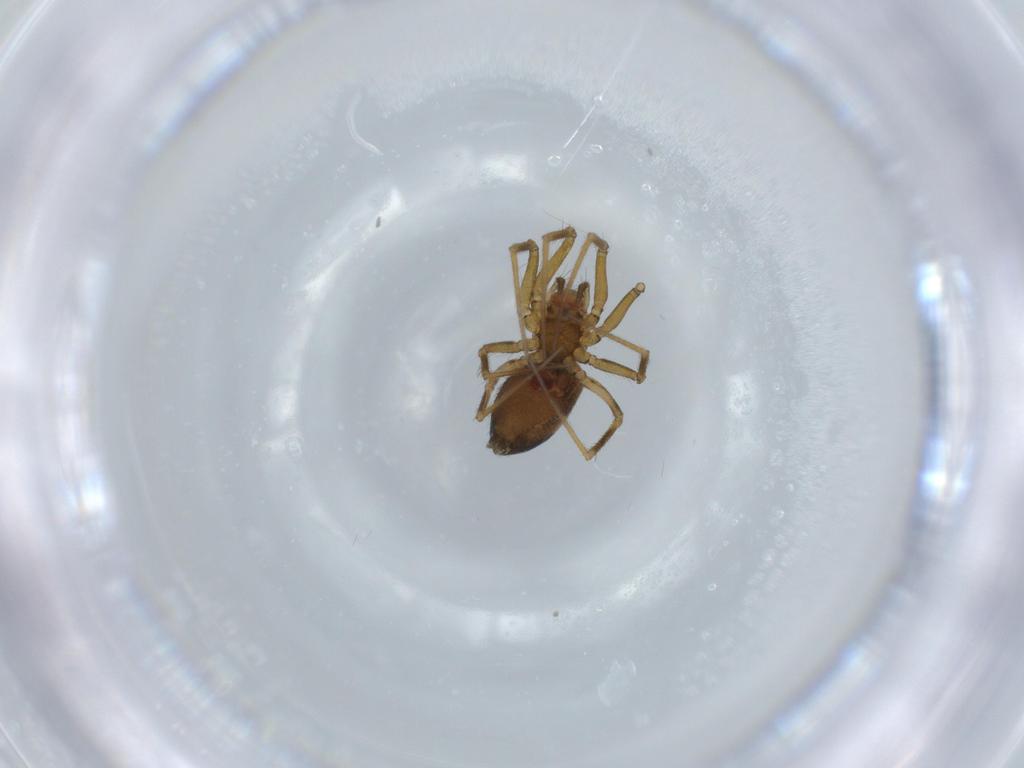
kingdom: Animalia
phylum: Arthropoda
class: Arachnida
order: Araneae
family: Linyphiidae
